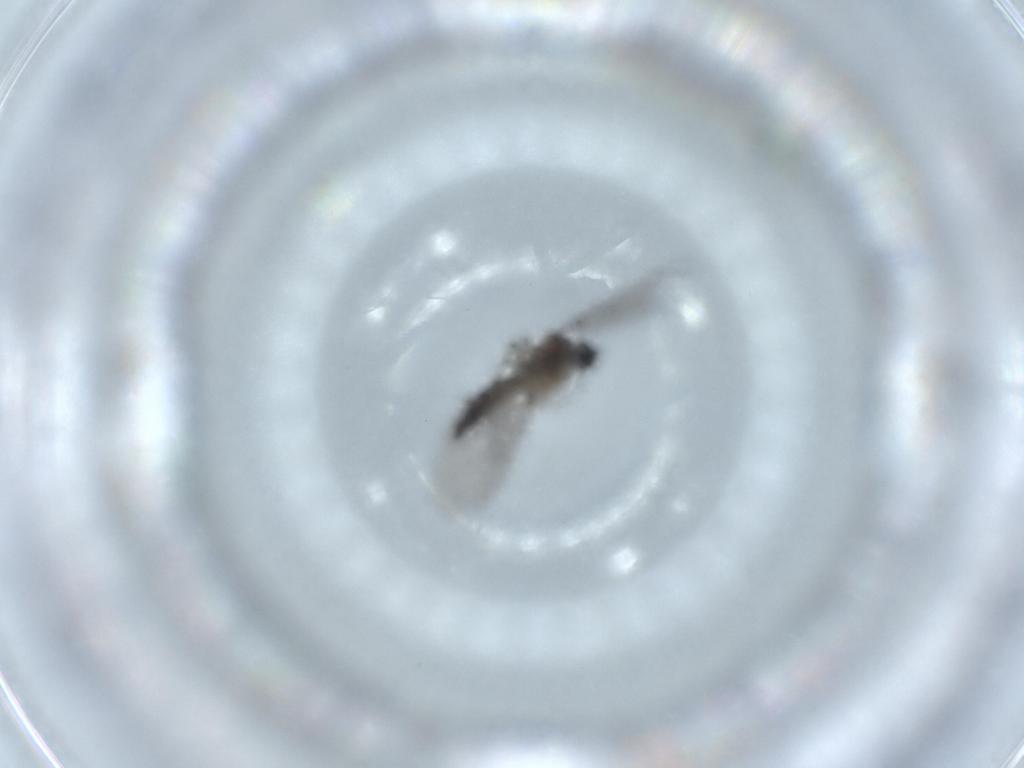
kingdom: Animalia
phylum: Arthropoda
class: Insecta
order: Diptera
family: Sciaridae
